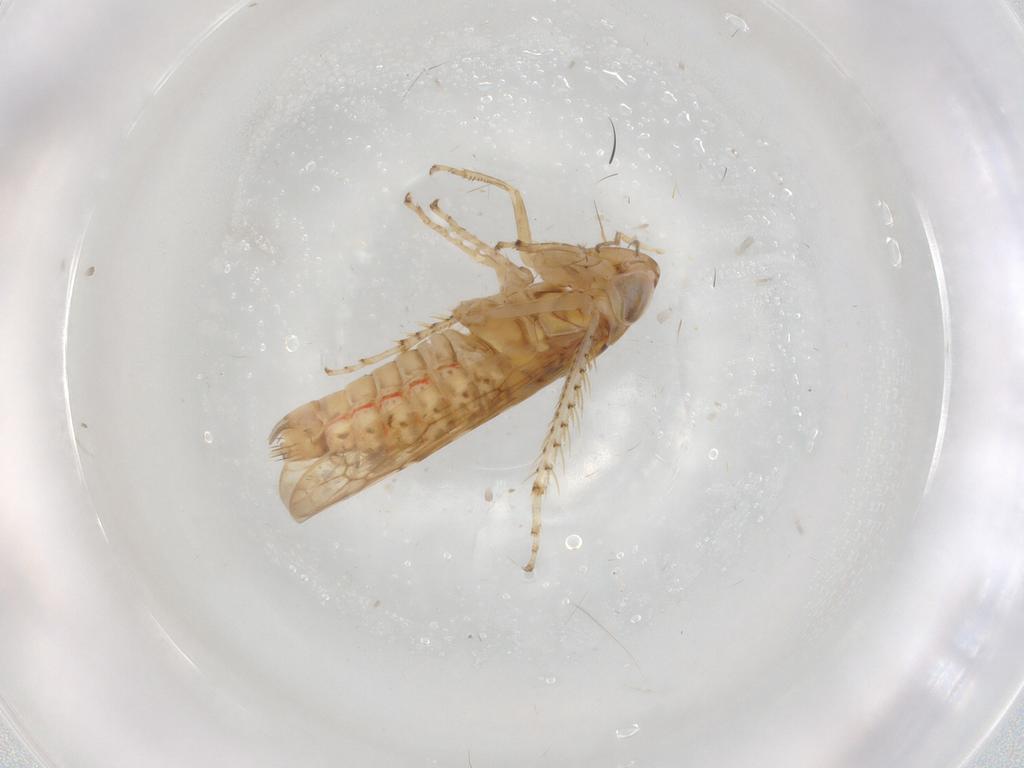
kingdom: Animalia
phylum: Arthropoda
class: Insecta
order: Hemiptera
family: Cicadellidae
